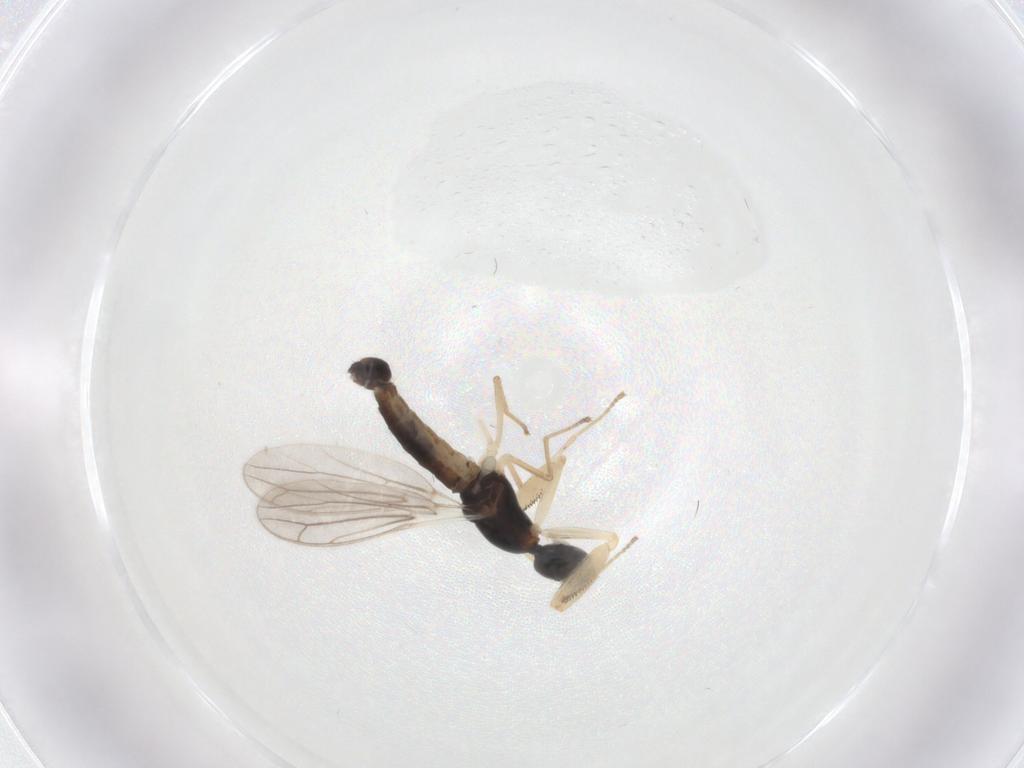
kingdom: Animalia
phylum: Arthropoda
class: Insecta
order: Diptera
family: Empididae
